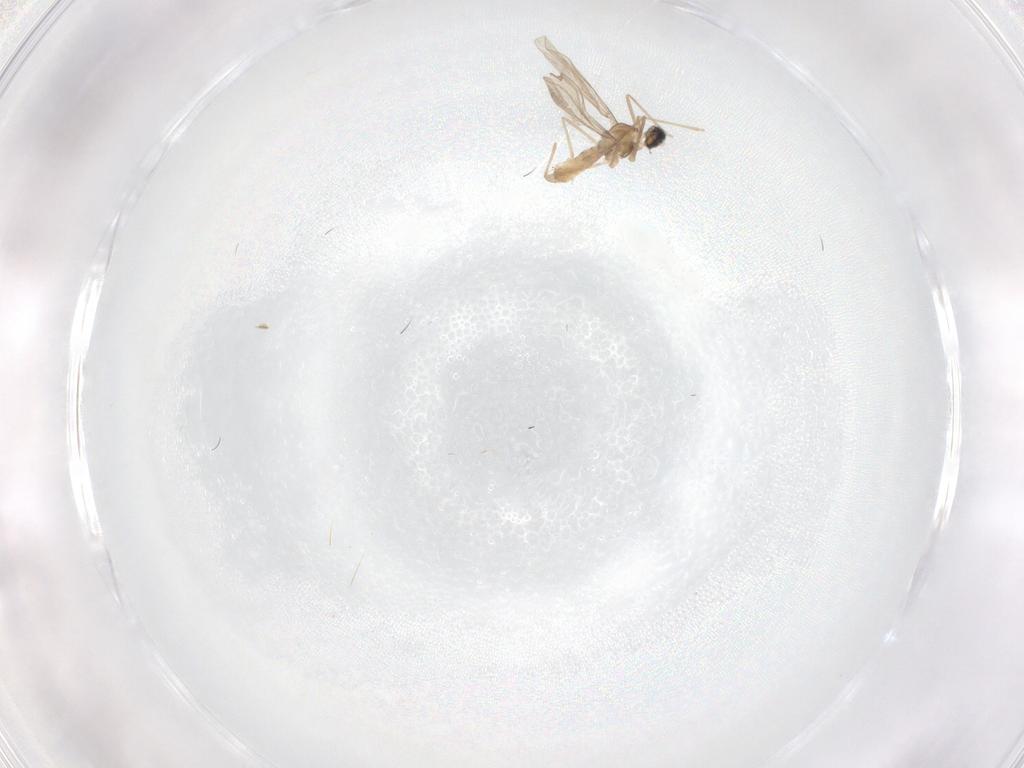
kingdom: Animalia
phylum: Arthropoda
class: Insecta
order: Diptera
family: Cecidomyiidae
